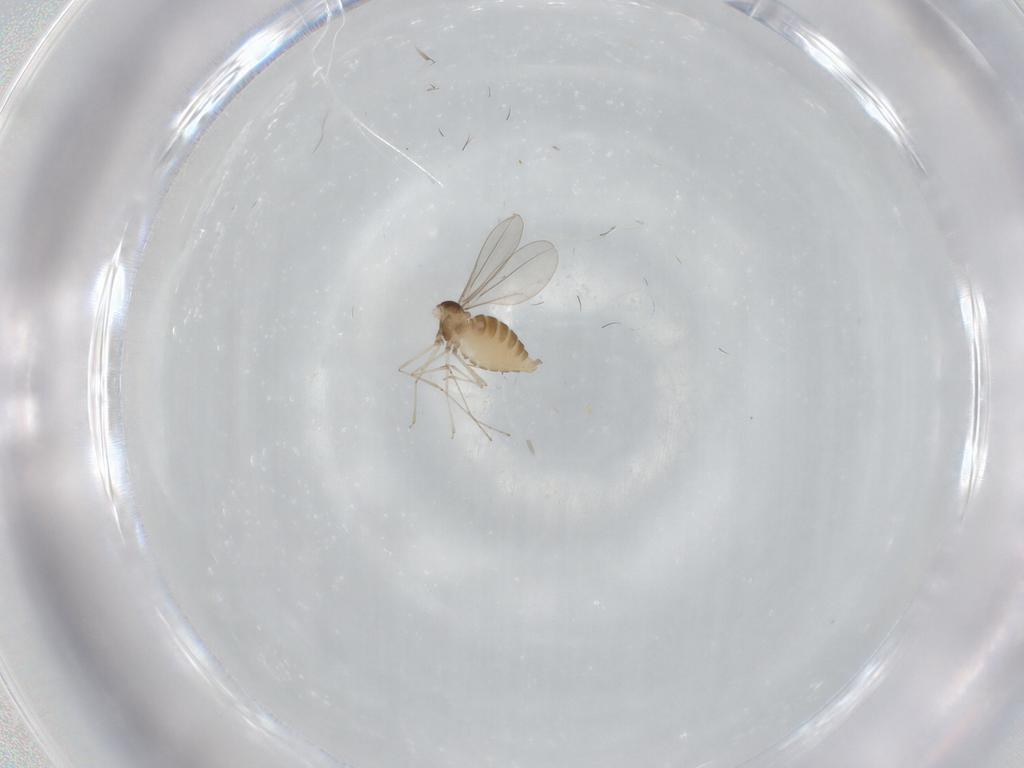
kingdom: Animalia
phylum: Arthropoda
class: Insecta
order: Diptera
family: Cecidomyiidae
